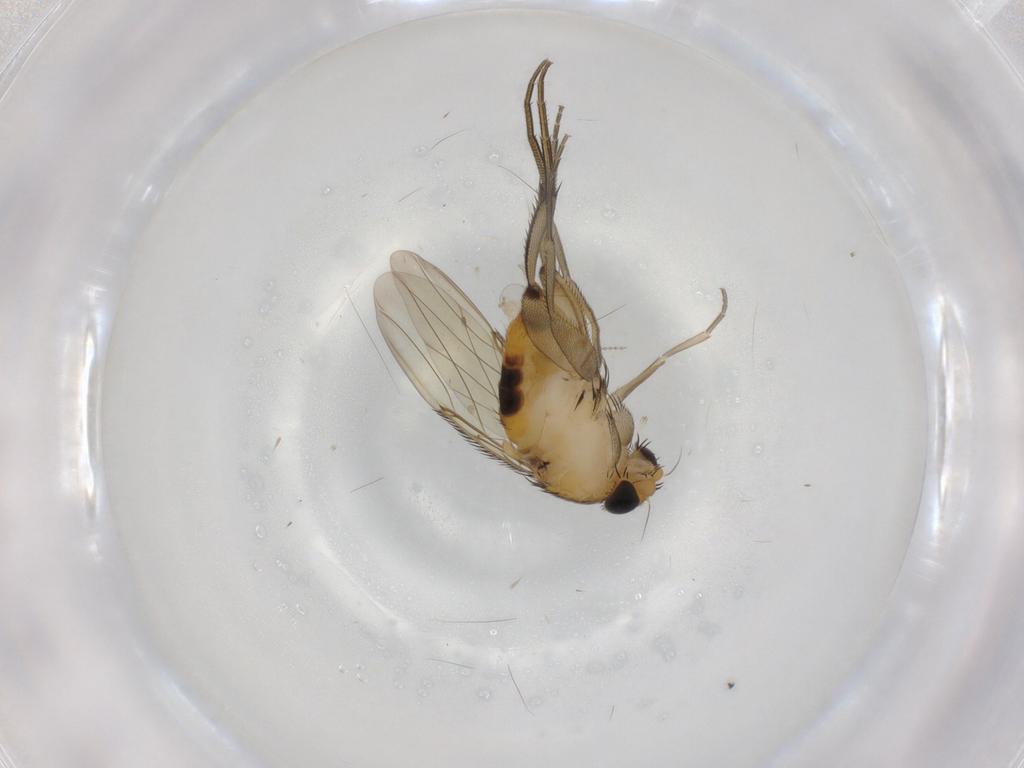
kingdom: Animalia
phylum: Arthropoda
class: Insecta
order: Diptera
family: Phoridae
